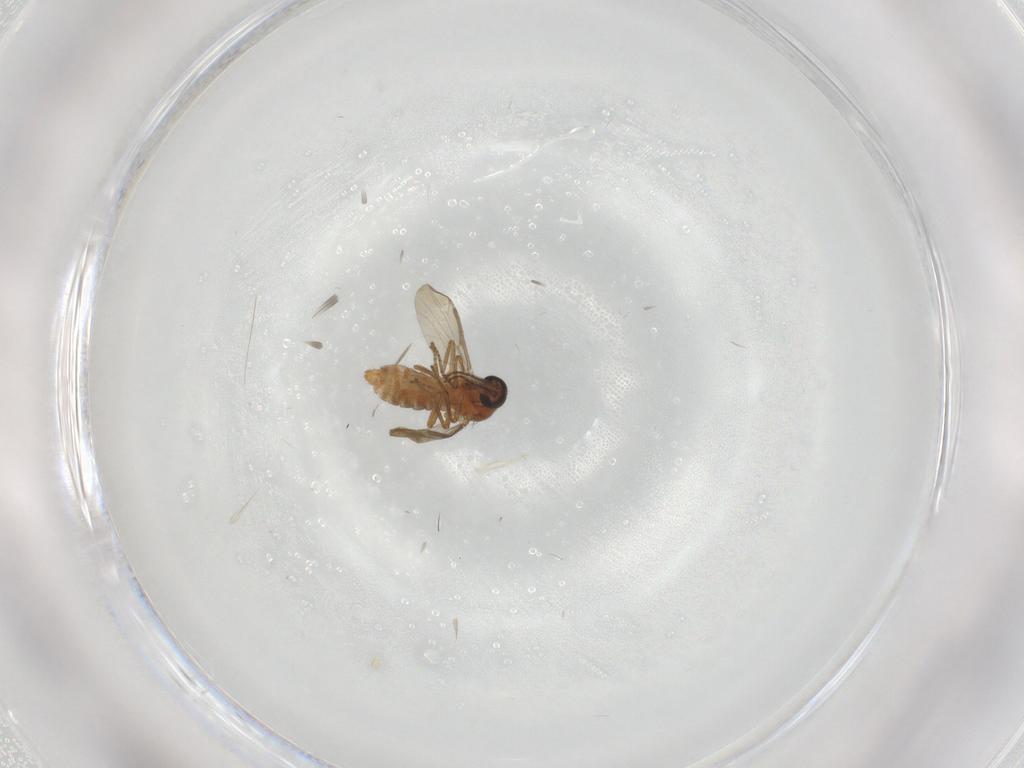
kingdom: Animalia
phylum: Arthropoda
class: Insecta
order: Diptera
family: Ceratopogonidae
